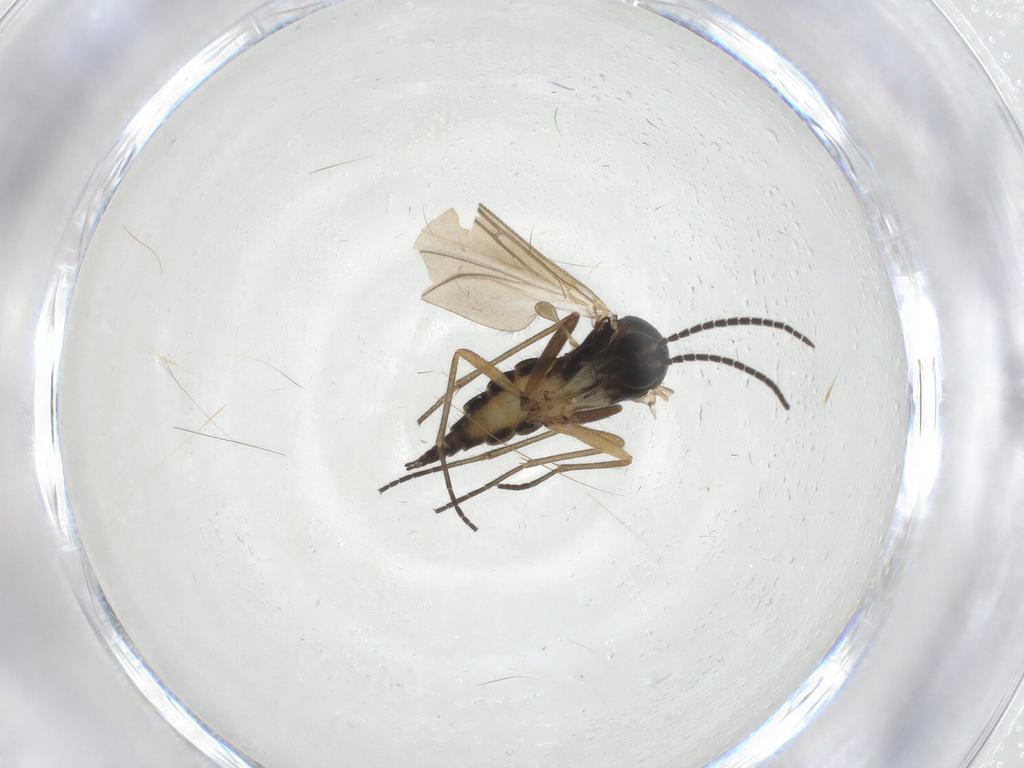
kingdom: Animalia
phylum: Arthropoda
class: Insecta
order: Diptera
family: Sciaridae
